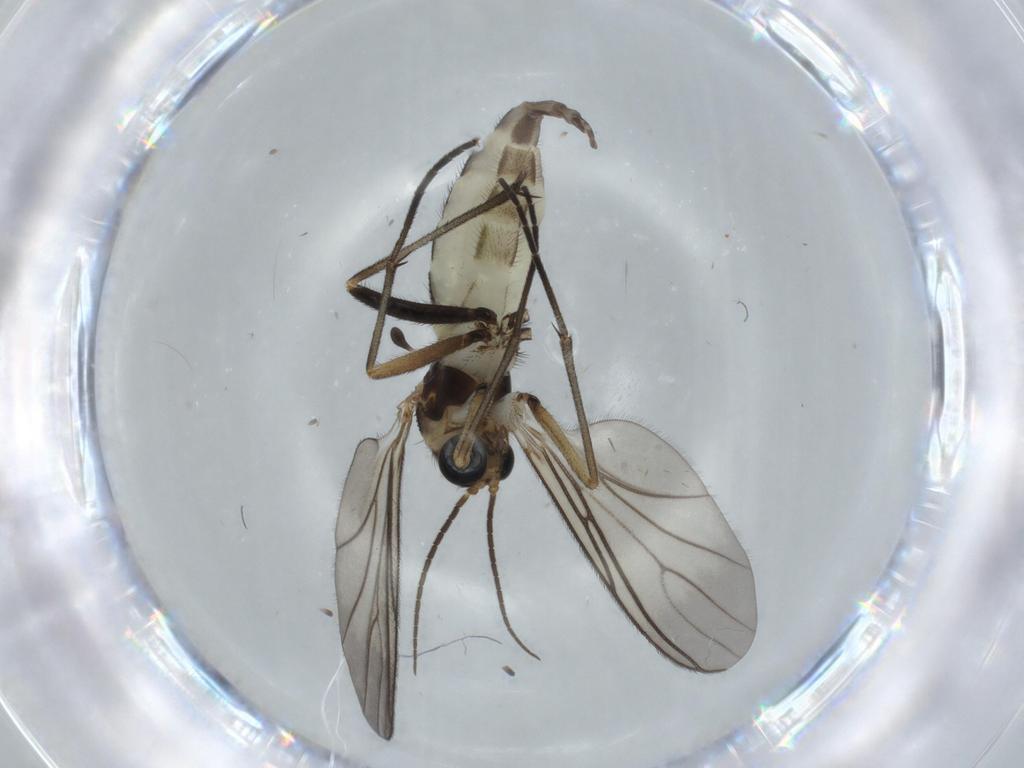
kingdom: Animalia
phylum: Arthropoda
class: Insecta
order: Diptera
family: Sciaridae
